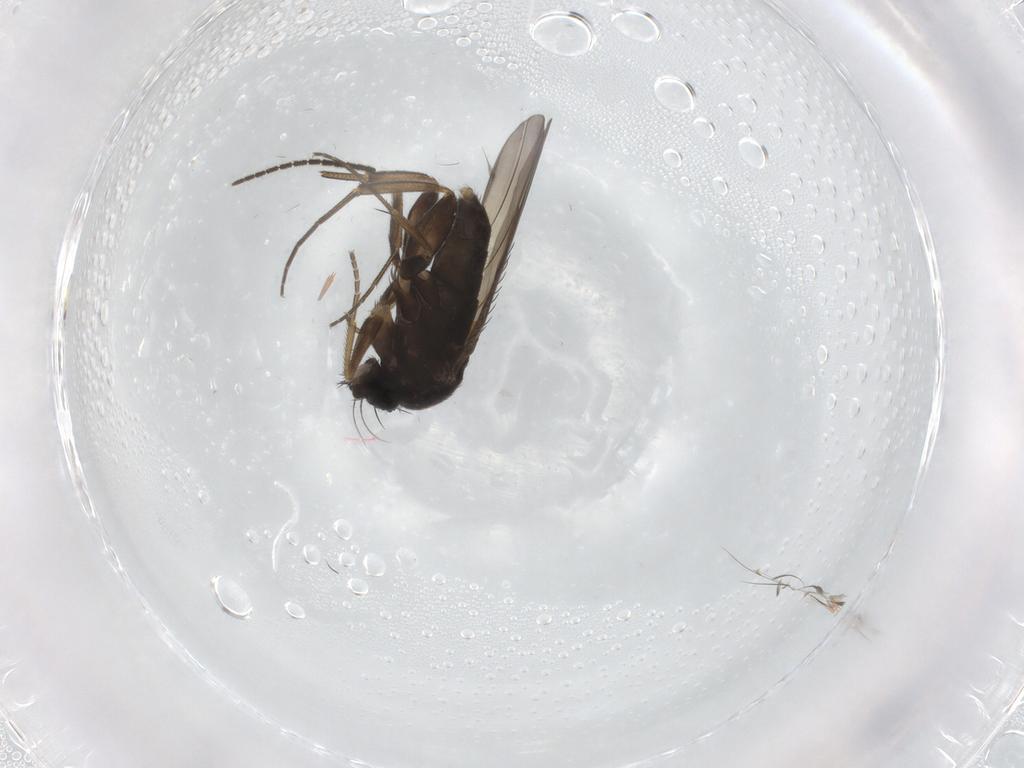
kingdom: Animalia
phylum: Arthropoda
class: Insecta
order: Diptera
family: Phoridae
